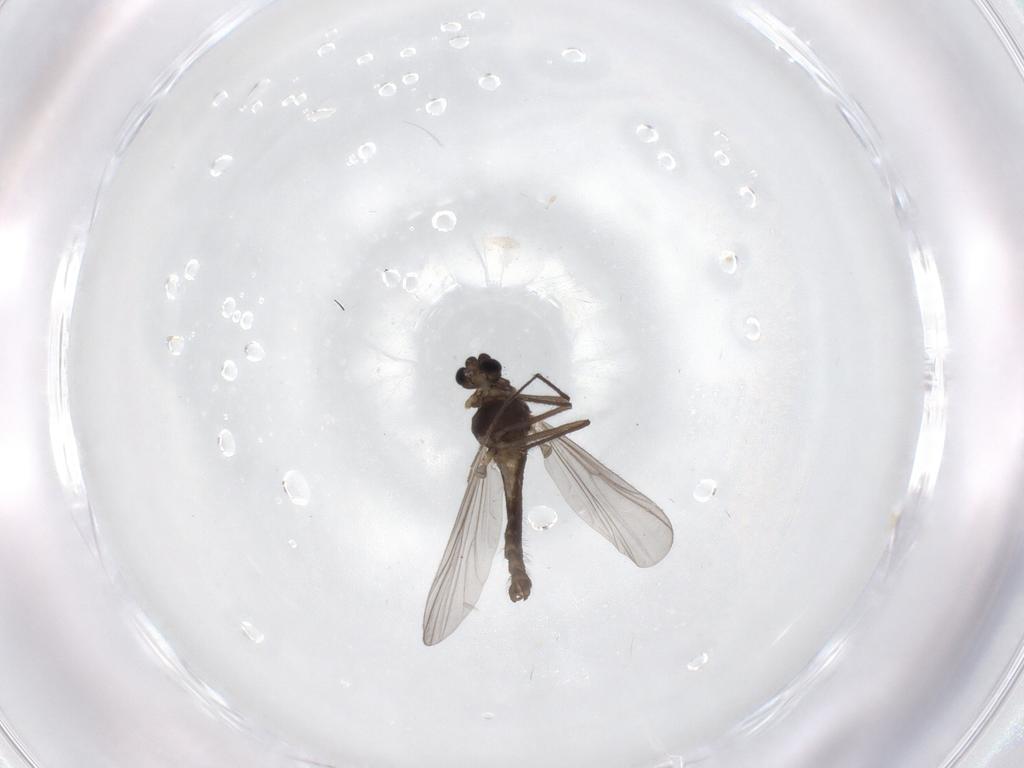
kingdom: Animalia
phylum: Arthropoda
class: Insecta
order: Diptera
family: Chironomidae
